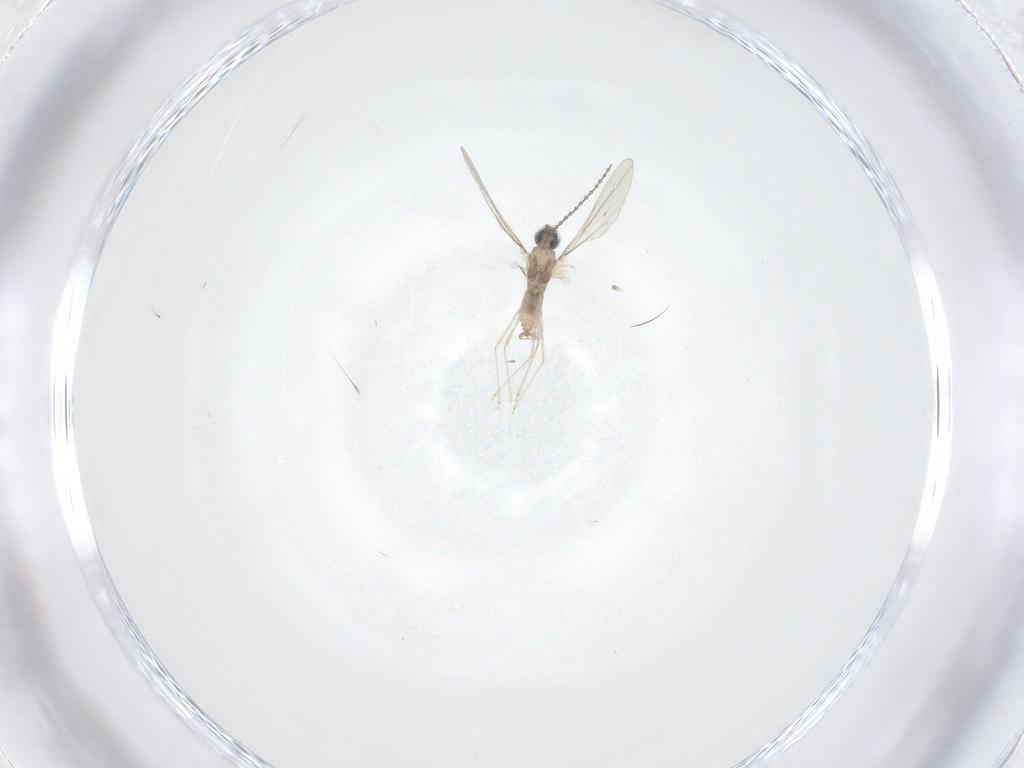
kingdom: Animalia
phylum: Arthropoda
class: Insecta
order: Diptera
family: Cecidomyiidae
